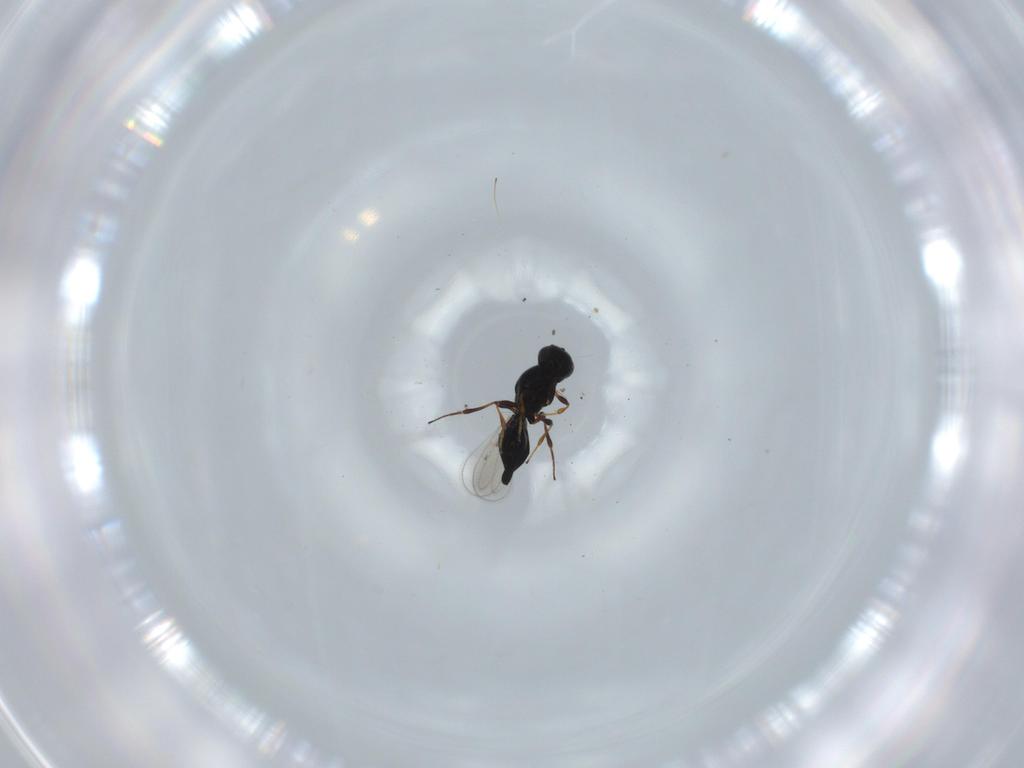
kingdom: Animalia
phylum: Arthropoda
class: Insecta
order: Hymenoptera
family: Platygastridae
